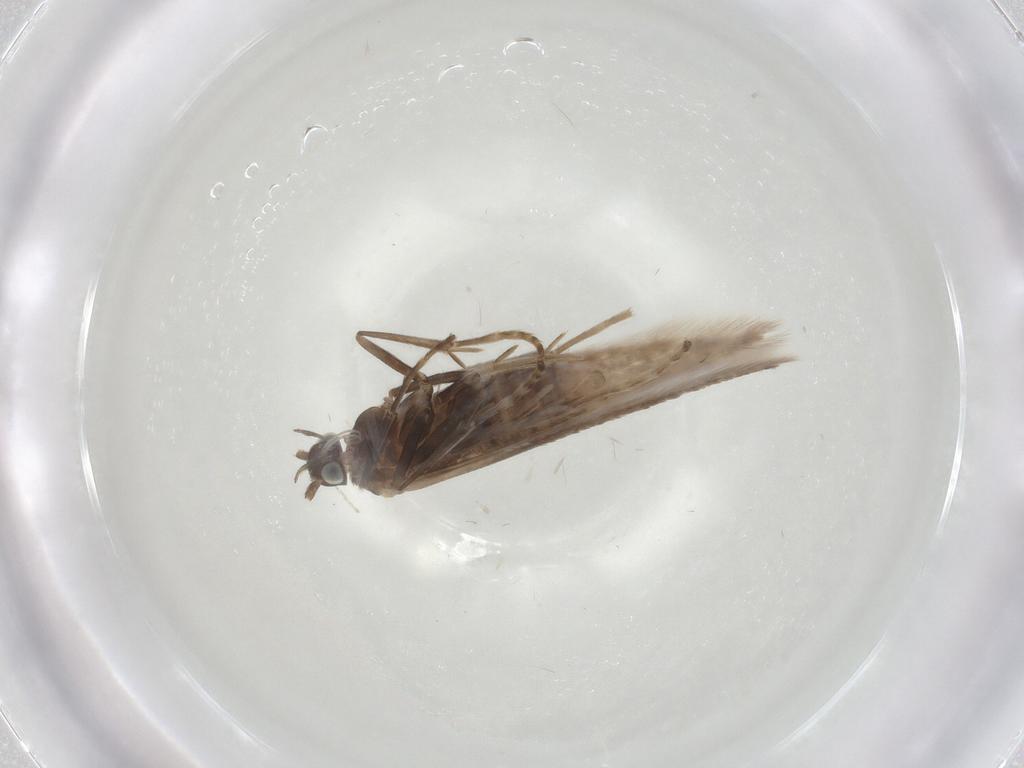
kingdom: Animalia
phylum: Arthropoda
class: Insecta
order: Lepidoptera
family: Coleophoridae
